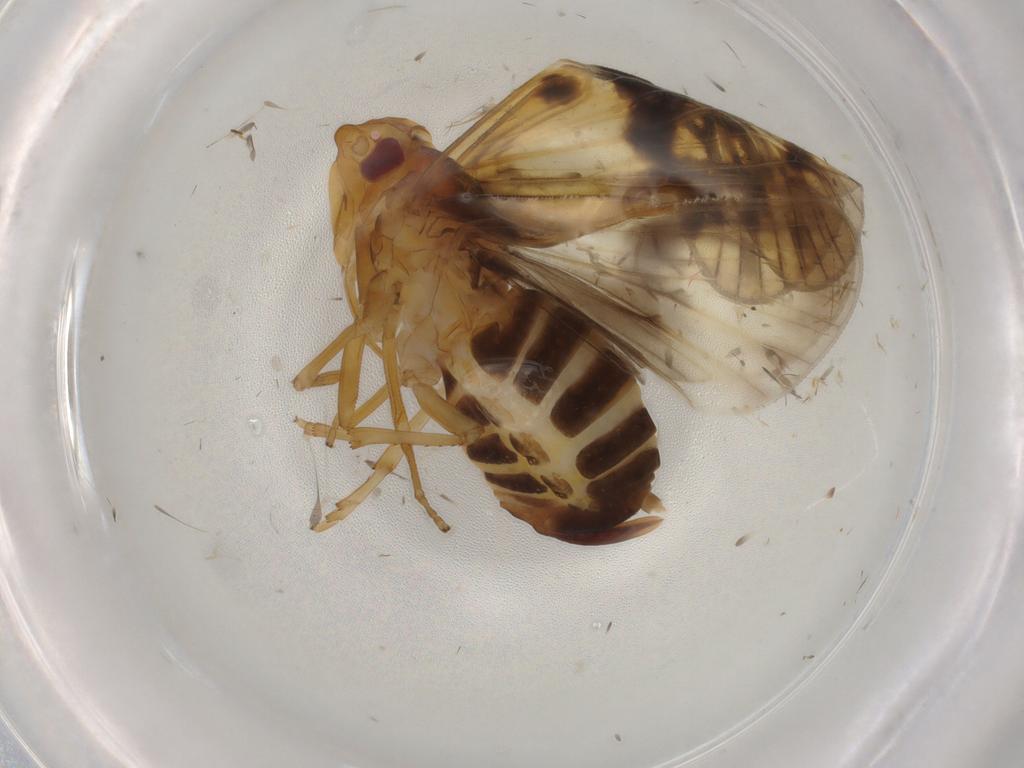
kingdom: Animalia
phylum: Arthropoda
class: Insecta
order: Hemiptera
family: Cixiidae
